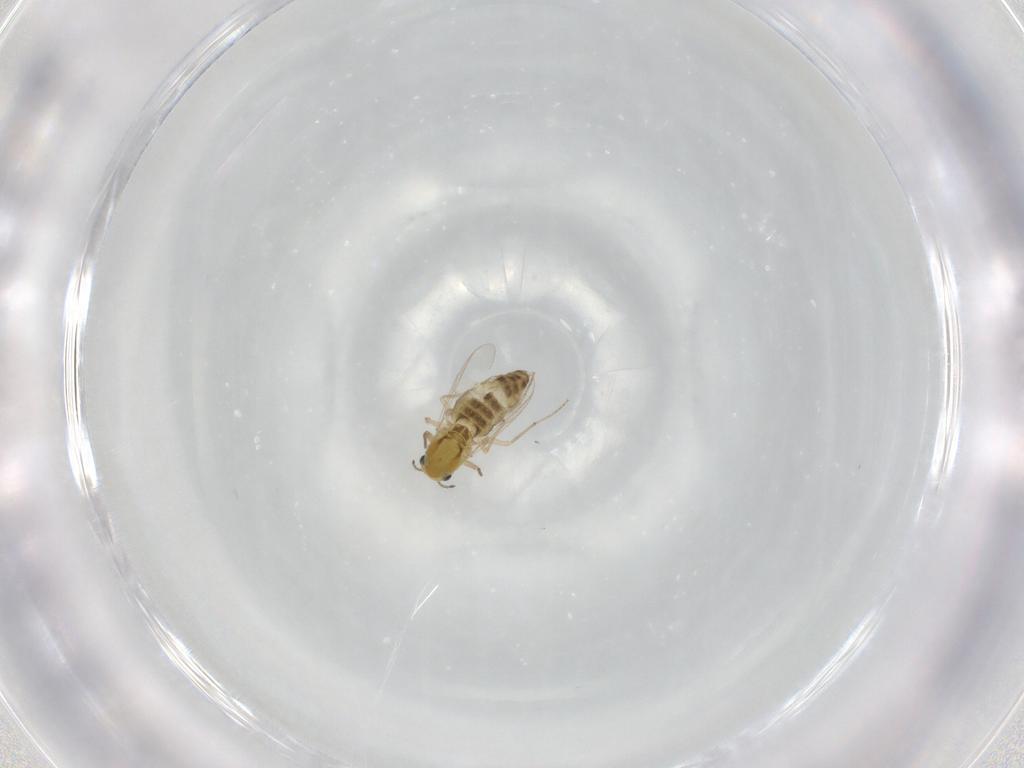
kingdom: Animalia
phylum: Arthropoda
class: Insecta
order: Diptera
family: Chironomidae
